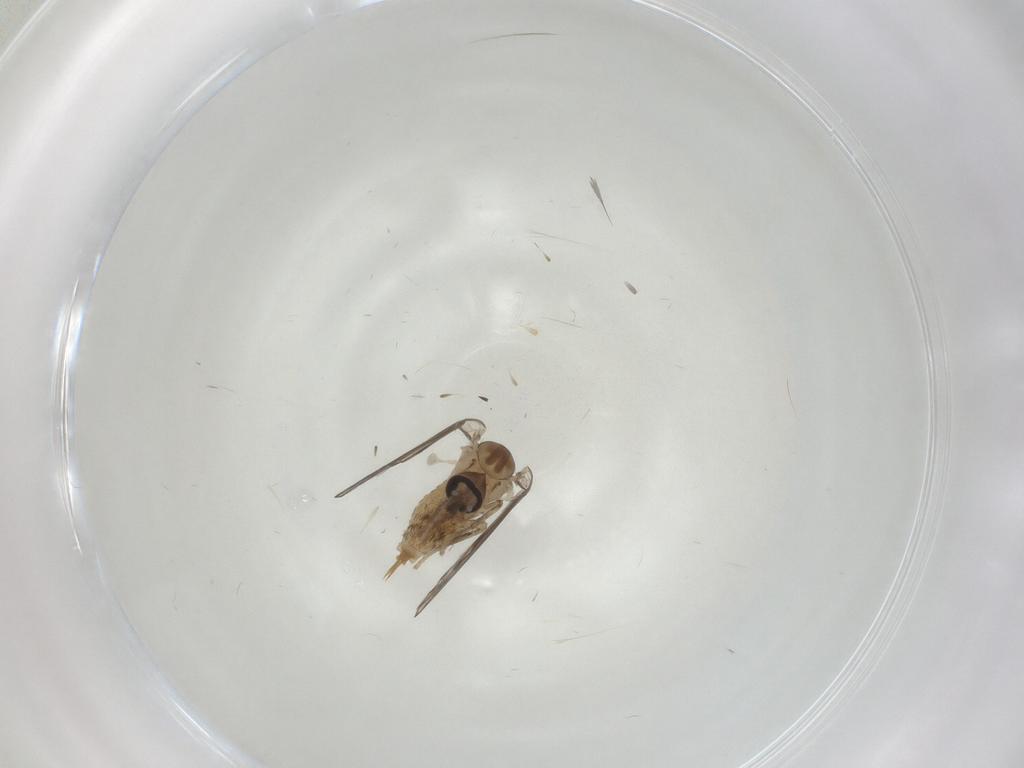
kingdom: Animalia
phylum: Arthropoda
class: Insecta
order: Diptera
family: Psychodidae
